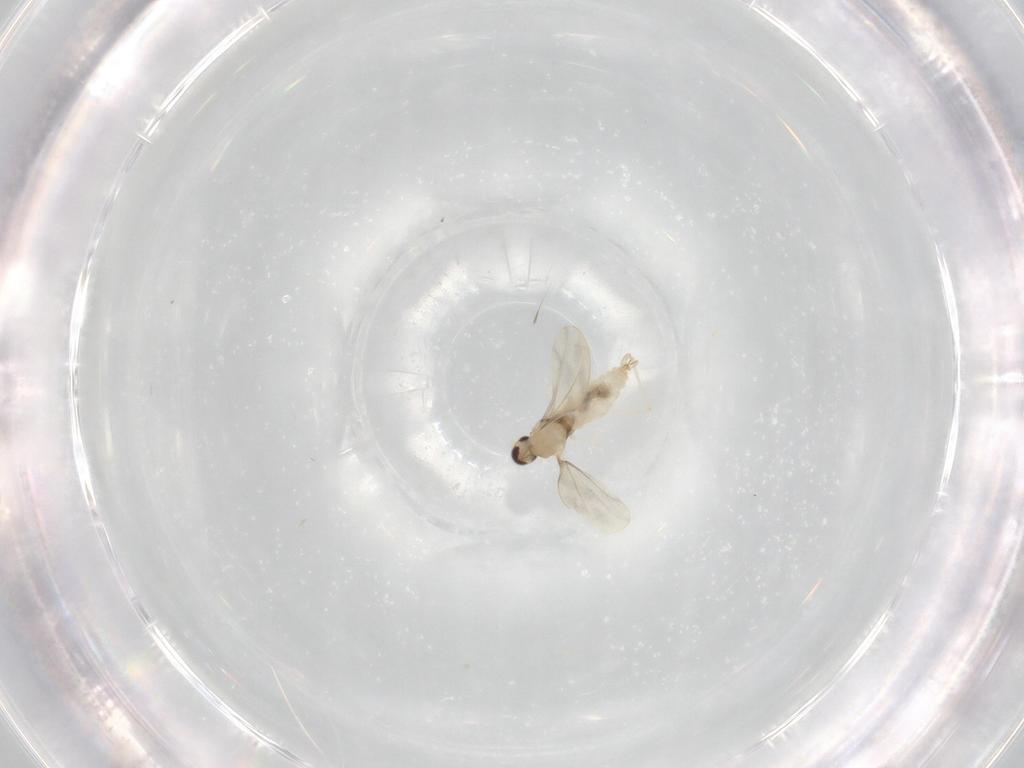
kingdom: Animalia
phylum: Arthropoda
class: Insecta
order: Diptera
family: Cecidomyiidae
